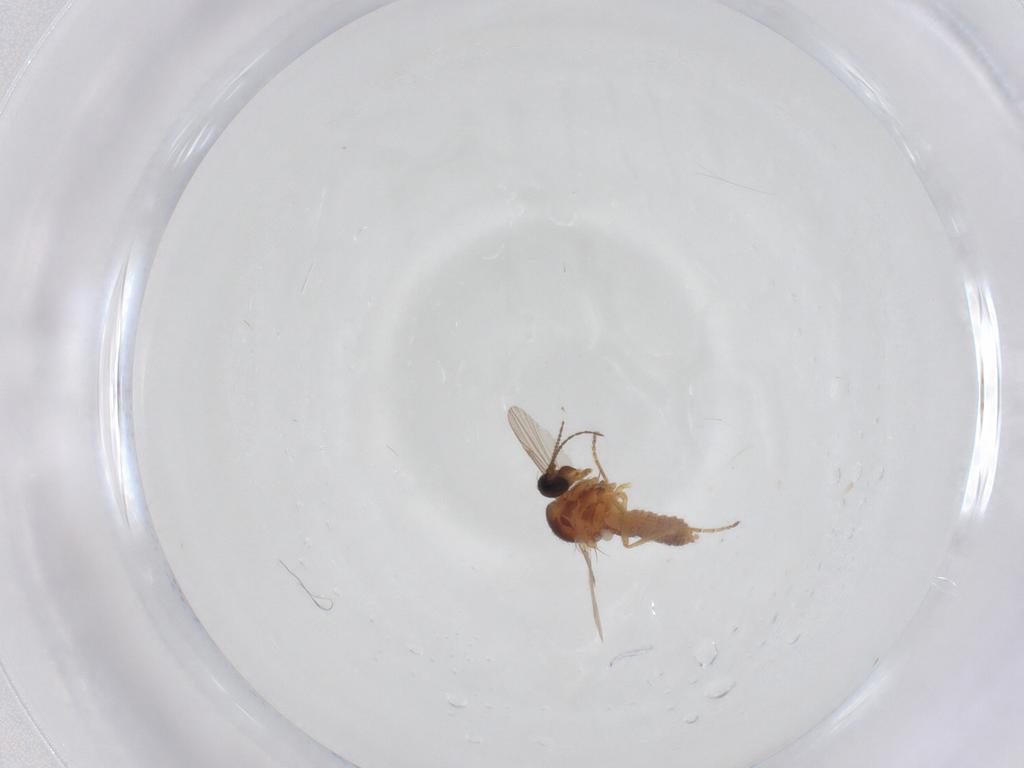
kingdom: Animalia
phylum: Arthropoda
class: Insecta
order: Diptera
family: Ceratopogonidae
